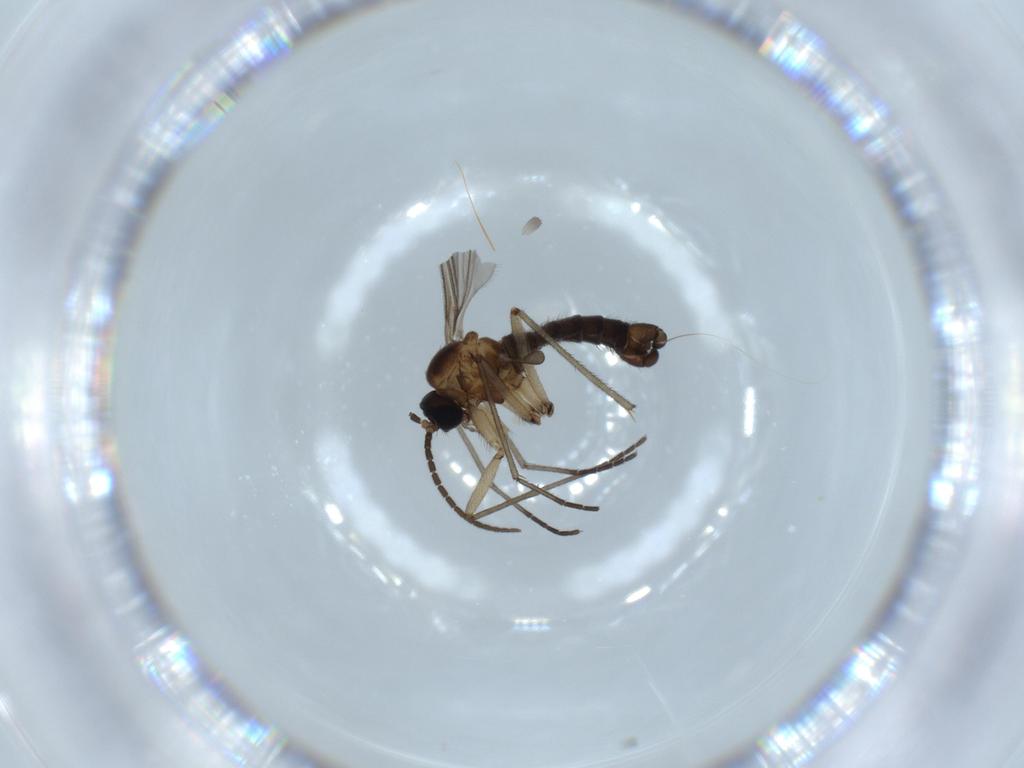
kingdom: Animalia
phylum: Arthropoda
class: Insecta
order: Diptera
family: Sciaridae
